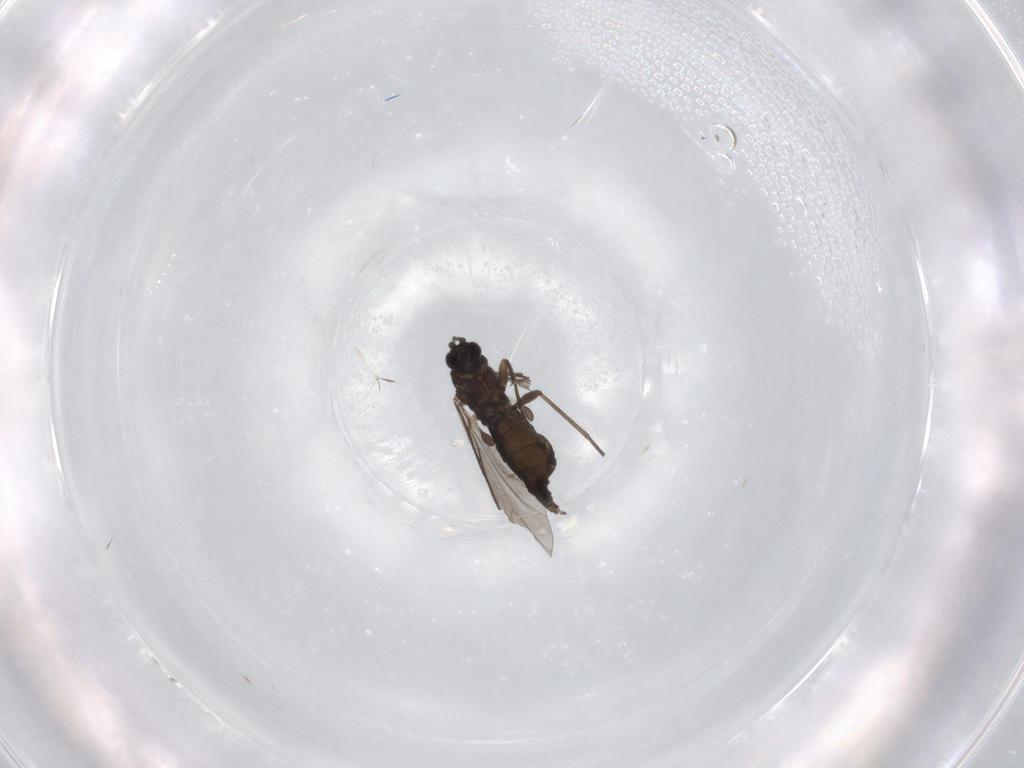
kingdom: Animalia
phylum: Arthropoda
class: Insecta
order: Diptera
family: Sciaridae
